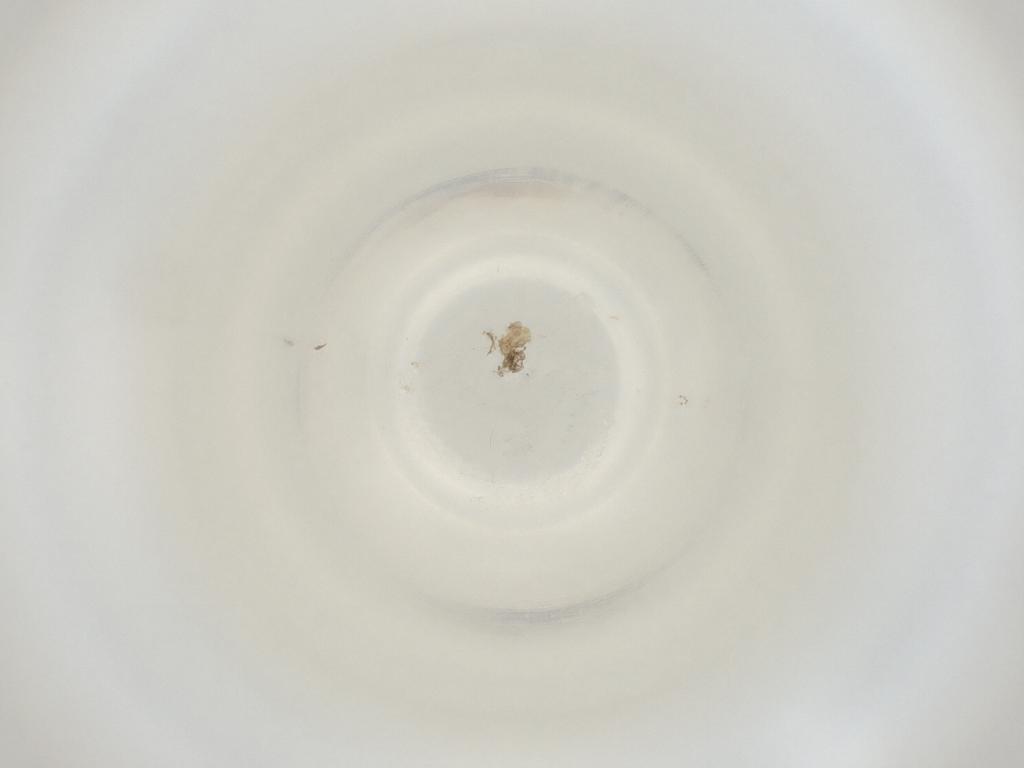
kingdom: Animalia
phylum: Arthropoda
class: Insecta
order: Diptera
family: Cecidomyiidae
